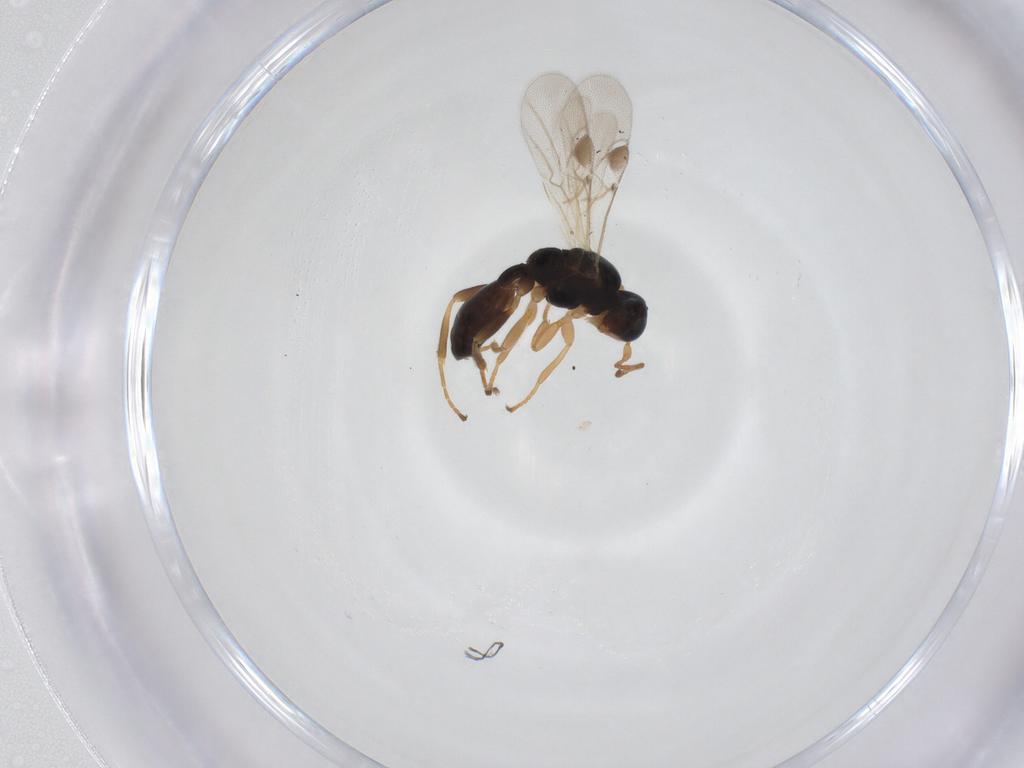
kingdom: Animalia
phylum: Arthropoda
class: Insecta
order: Hymenoptera
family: Braconidae
